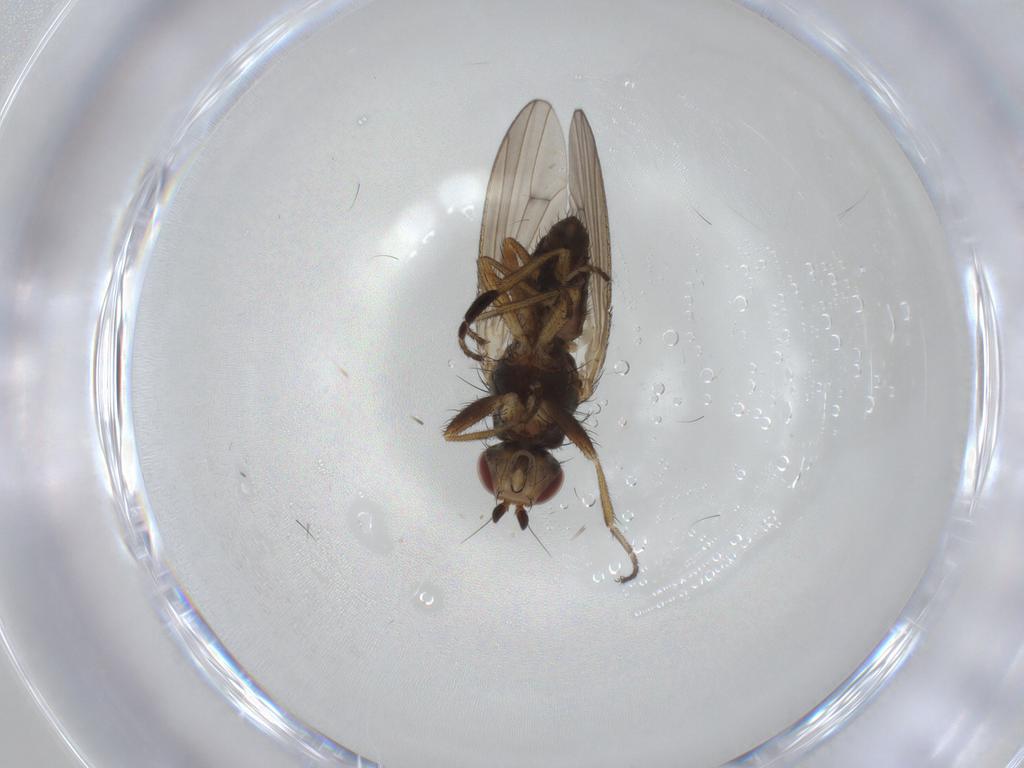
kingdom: Animalia
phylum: Arthropoda
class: Insecta
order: Diptera
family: Heleomyzidae
